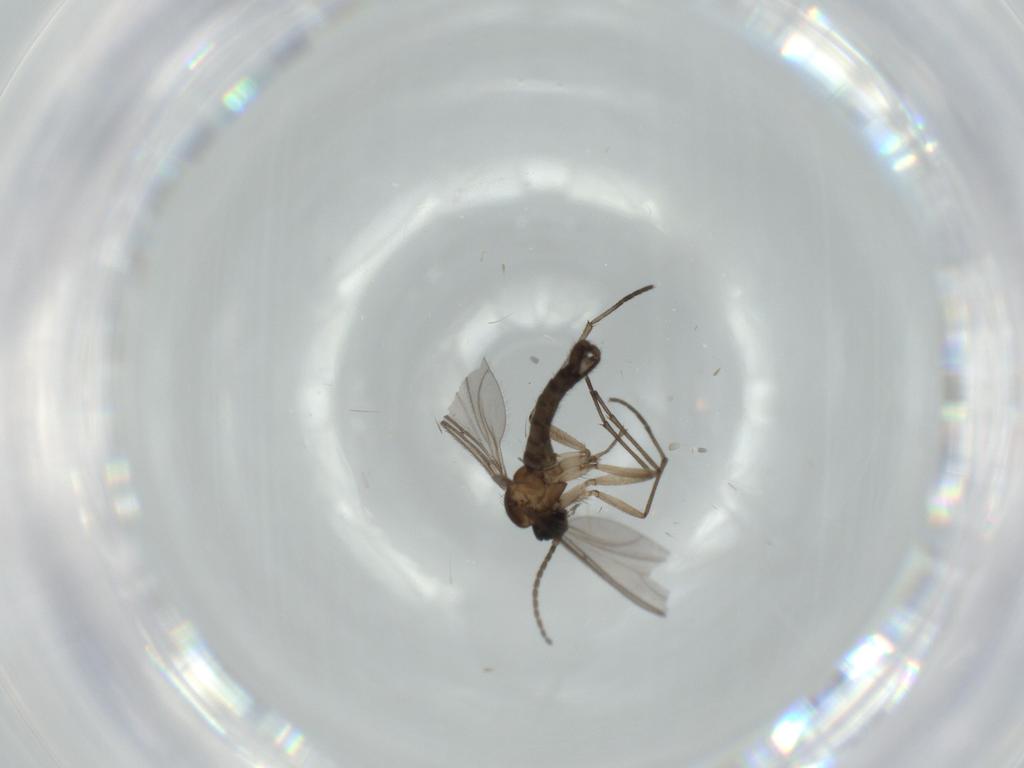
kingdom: Animalia
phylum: Arthropoda
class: Insecta
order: Diptera
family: Sciaridae
